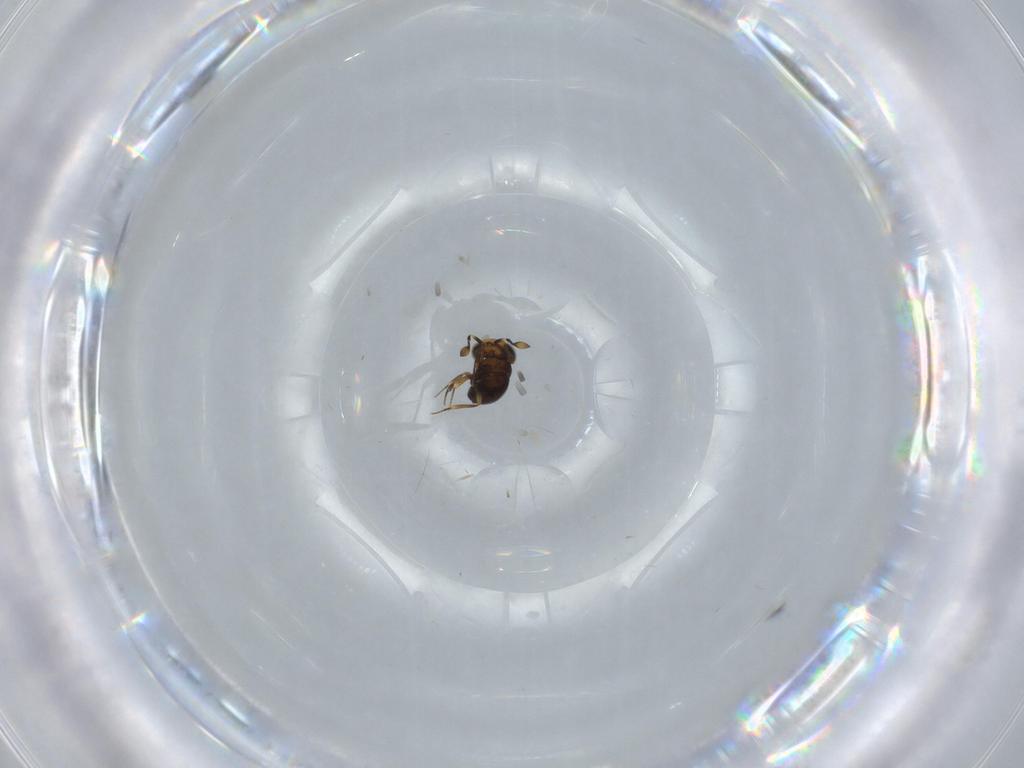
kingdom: Animalia
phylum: Arthropoda
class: Insecta
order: Hymenoptera
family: Scelionidae
